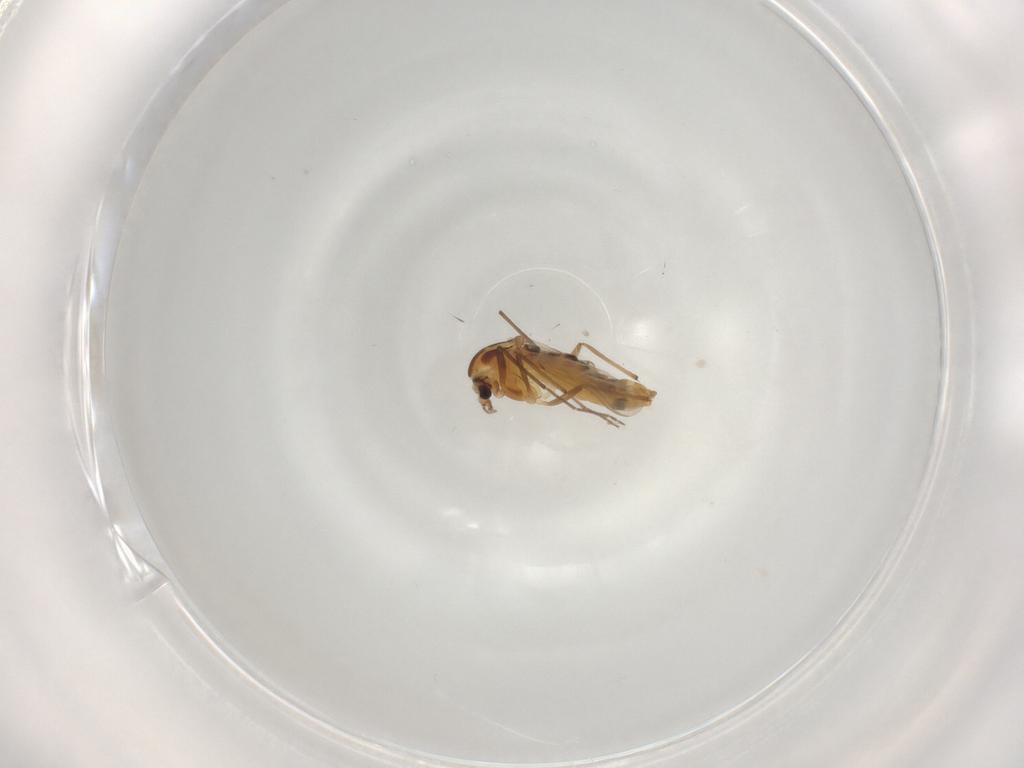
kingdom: Animalia
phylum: Arthropoda
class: Insecta
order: Diptera
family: Chironomidae
